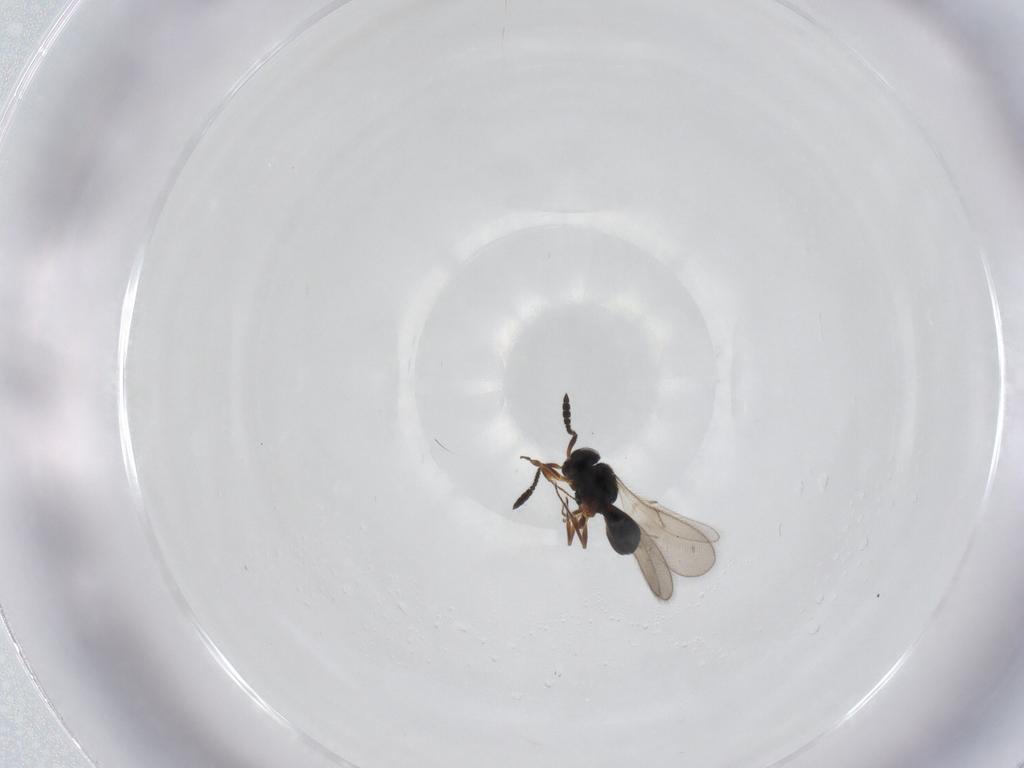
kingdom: Animalia
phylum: Arthropoda
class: Insecta
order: Hymenoptera
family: Scelionidae
